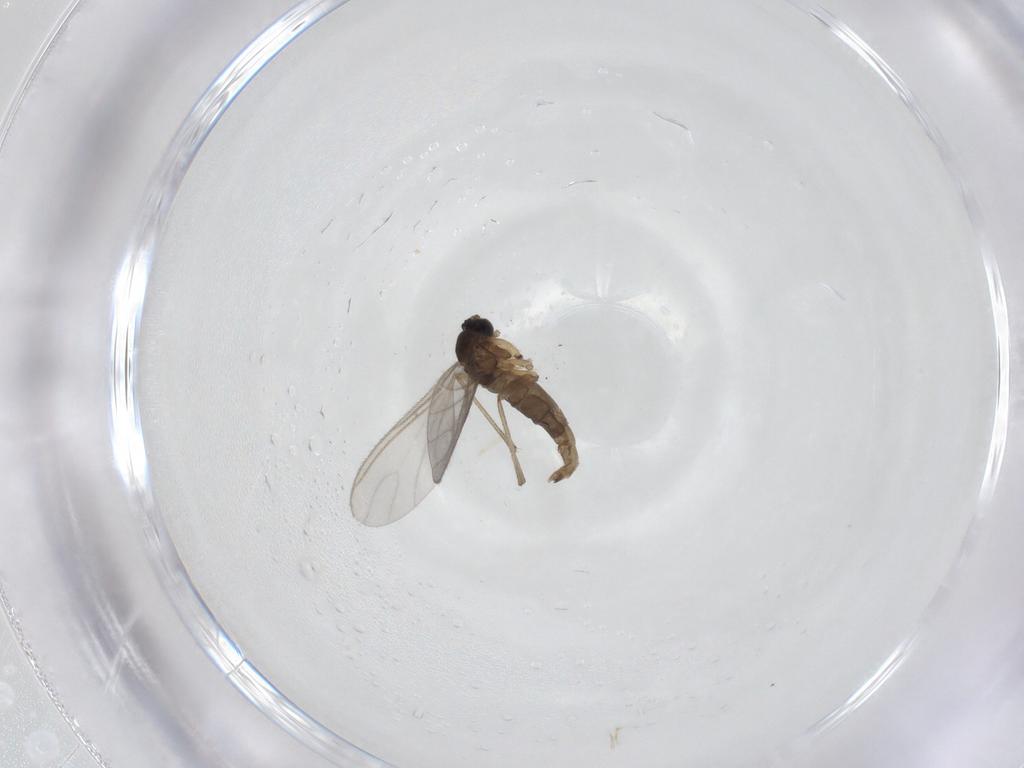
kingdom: Animalia
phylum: Arthropoda
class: Insecta
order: Diptera
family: Sciaridae
